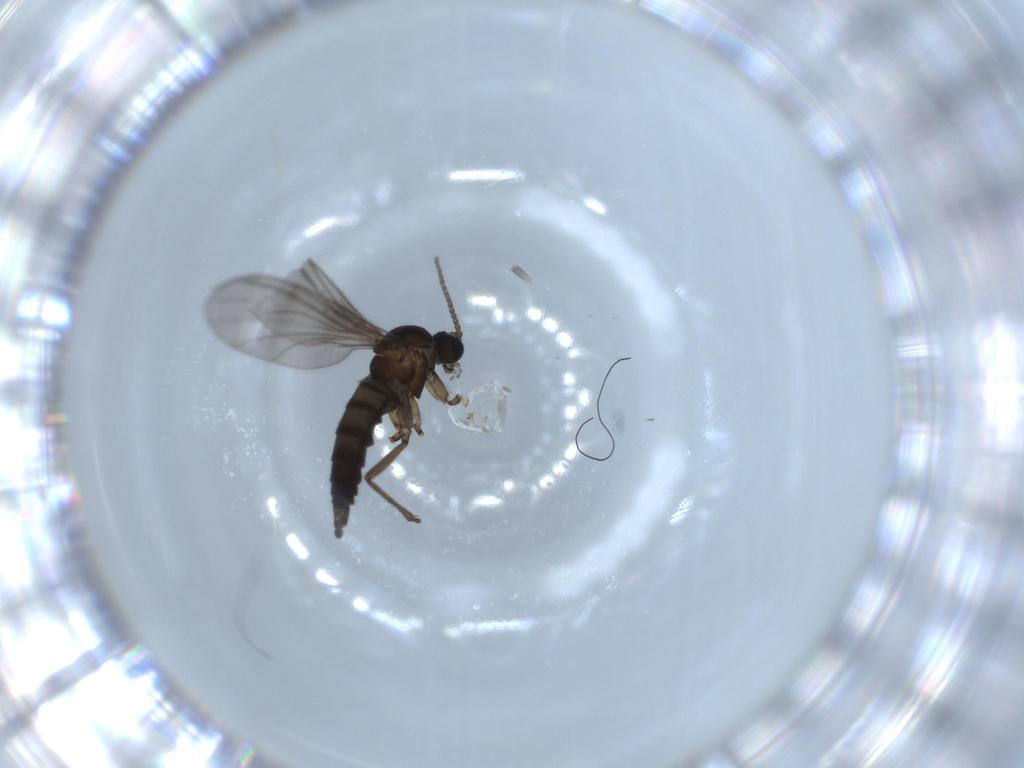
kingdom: Animalia
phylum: Arthropoda
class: Insecta
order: Diptera
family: Sciaridae
